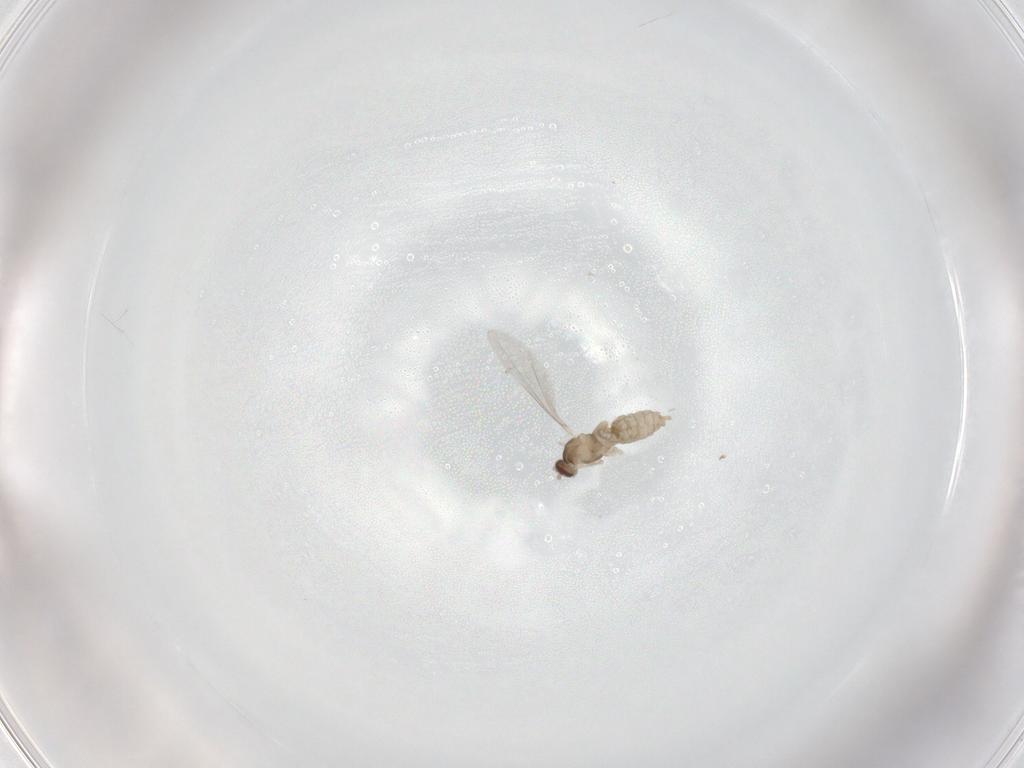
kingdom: Animalia
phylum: Arthropoda
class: Insecta
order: Diptera
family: Cecidomyiidae
